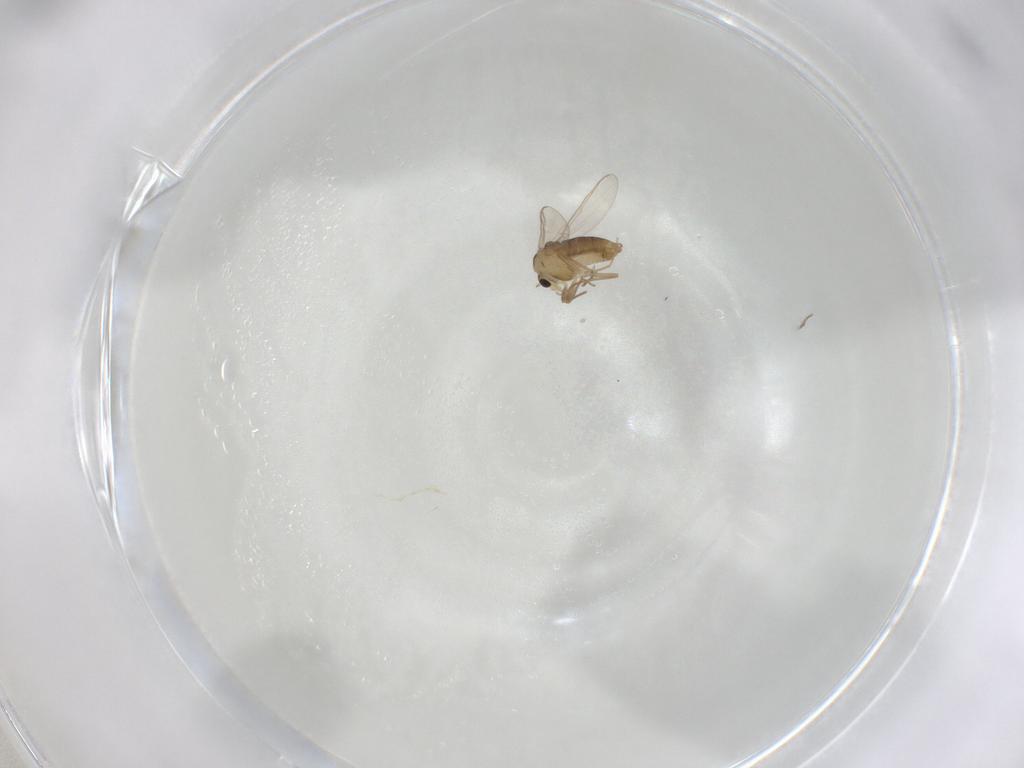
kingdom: Animalia
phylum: Arthropoda
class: Insecta
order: Diptera
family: Chironomidae
